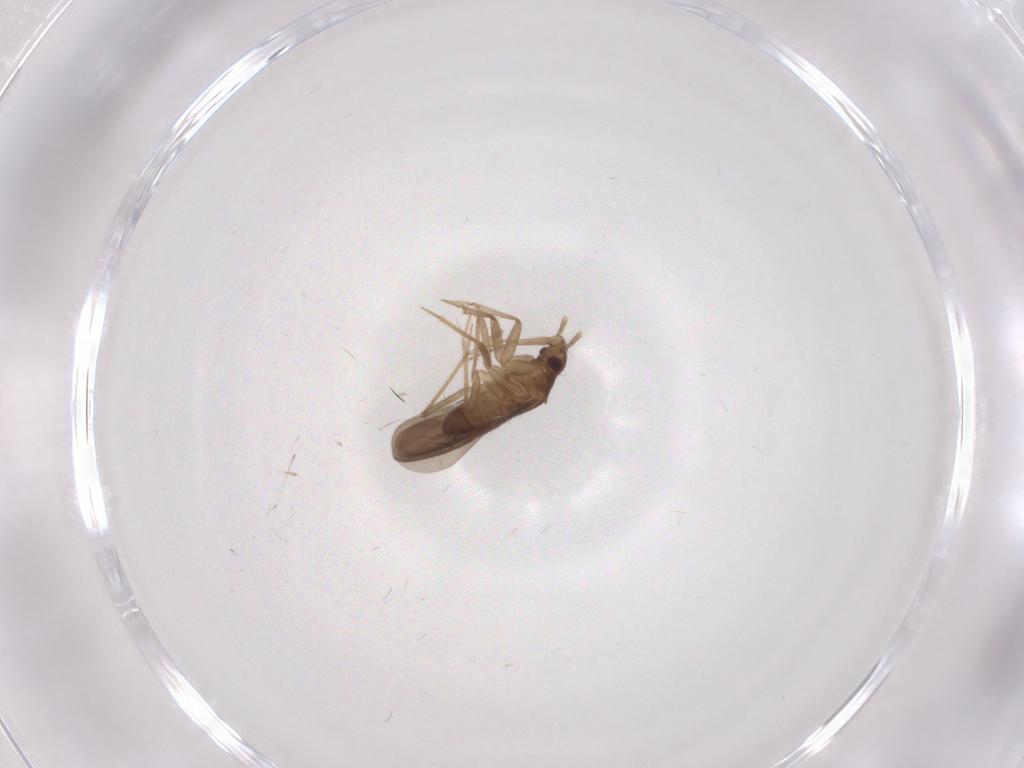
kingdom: Animalia
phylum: Arthropoda
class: Insecta
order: Diptera
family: Ceratopogonidae
